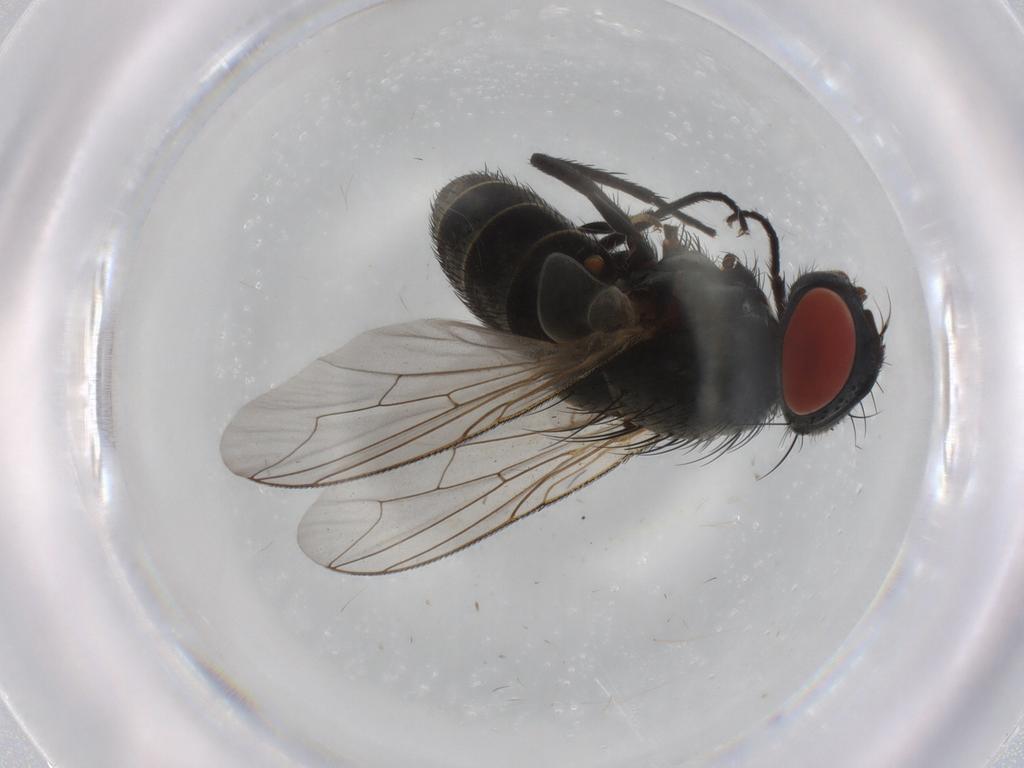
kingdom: Animalia
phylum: Arthropoda
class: Insecta
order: Diptera
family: Sarcophagidae
